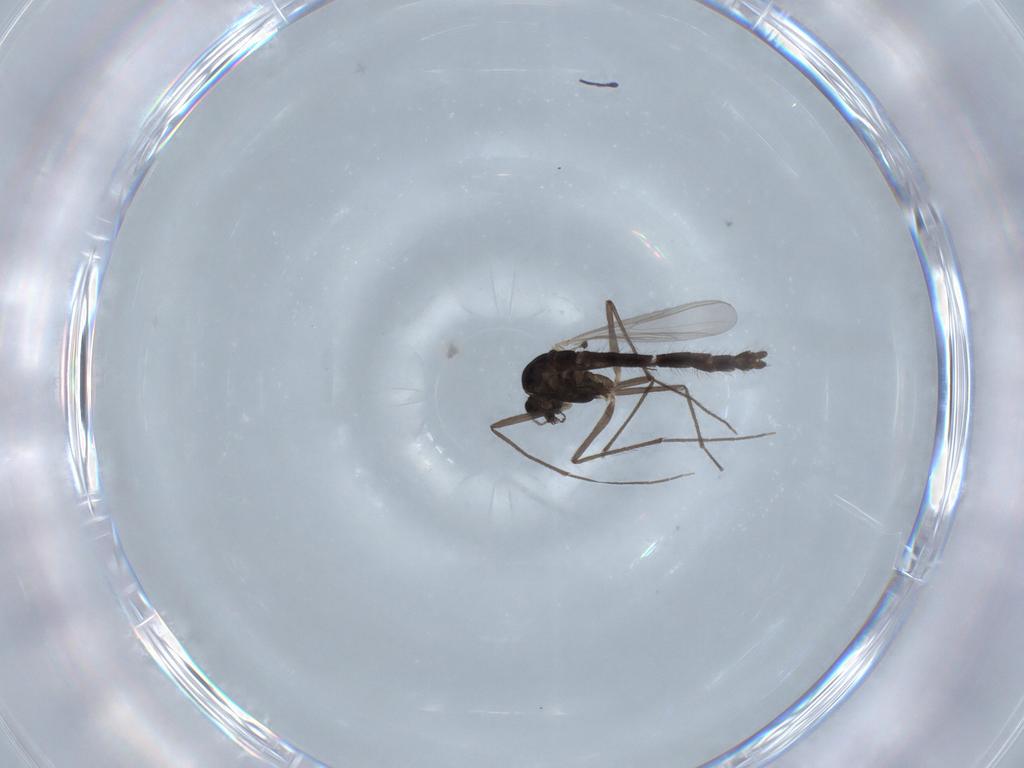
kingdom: Animalia
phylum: Arthropoda
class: Insecta
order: Diptera
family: Chironomidae
